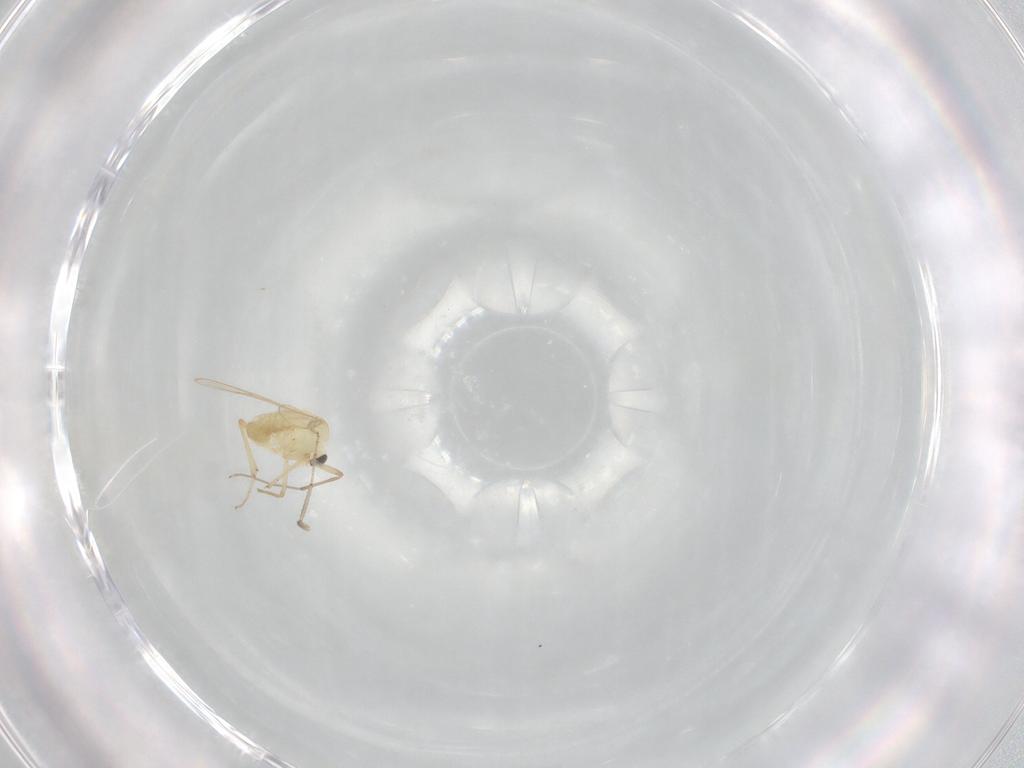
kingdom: Animalia
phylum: Arthropoda
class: Insecta
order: Diptera
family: Chironomidae
